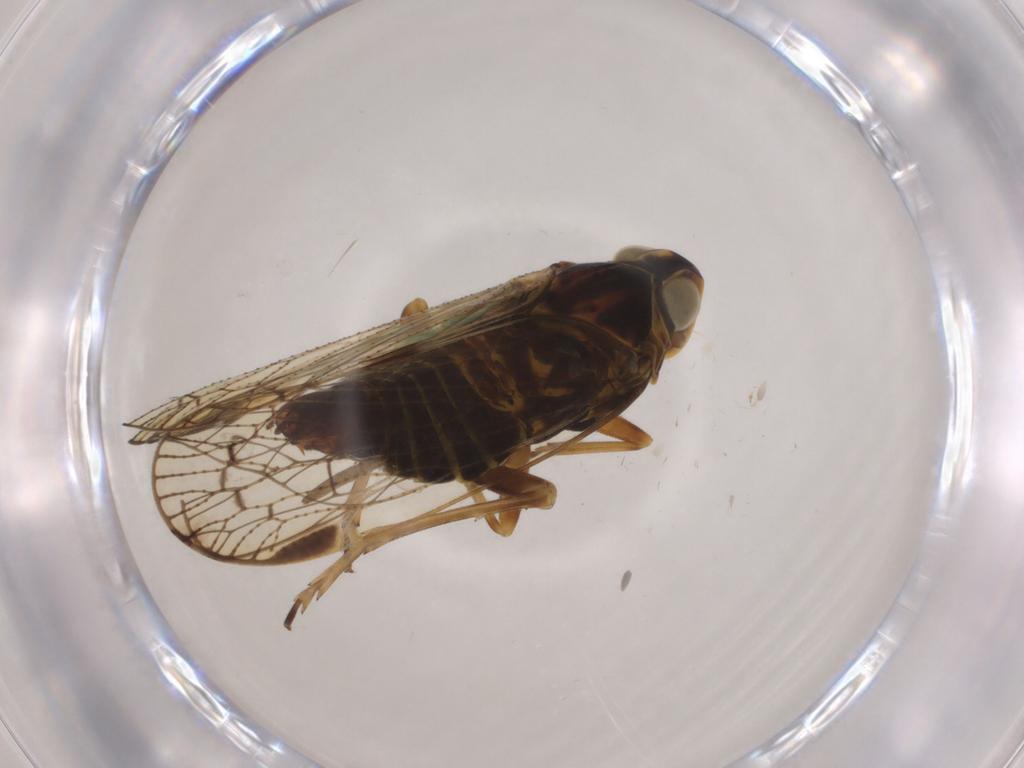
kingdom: Animalia
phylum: Arthropoda
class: Insecta
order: Hemiptera
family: Cixiidae
